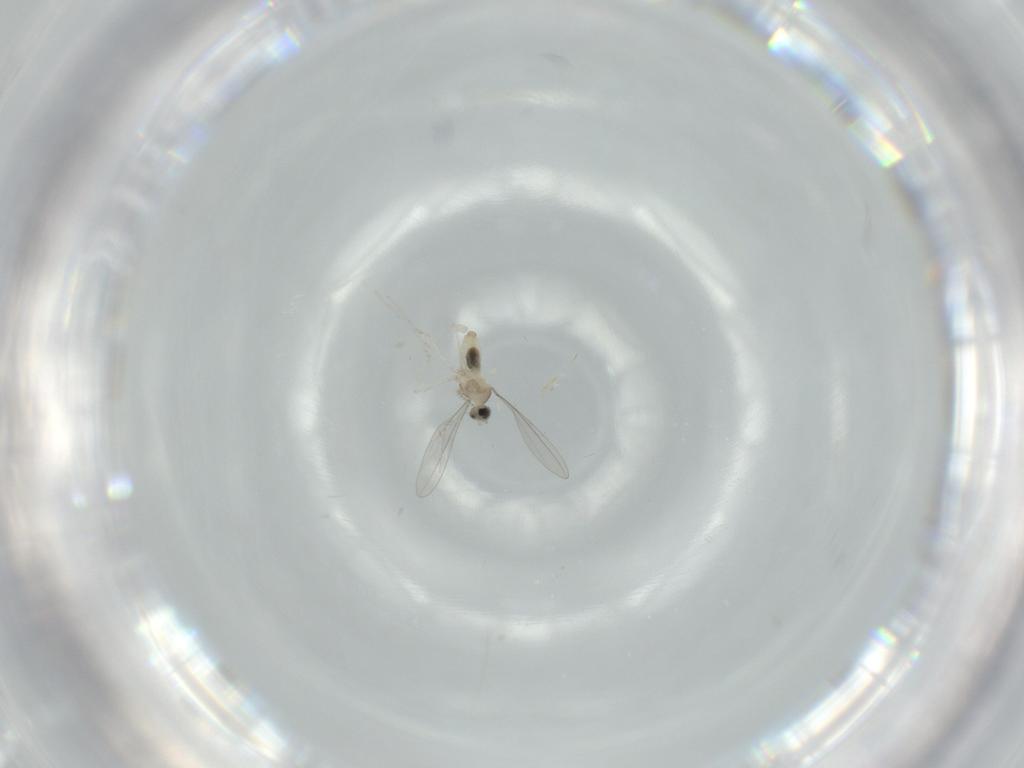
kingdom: Animalia
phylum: Arthropoda
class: Insecta
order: Diptera
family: Cecidomyiidae
